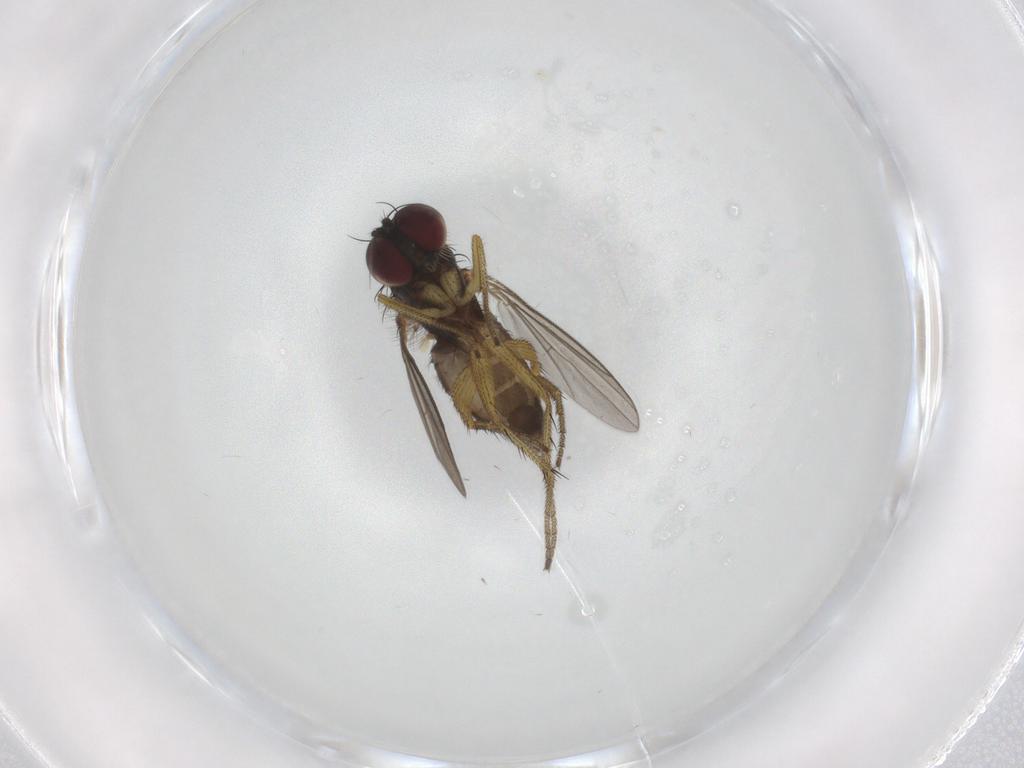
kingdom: Animalia
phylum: Arthropoda
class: Insecta
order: Diptera
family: Chironomidae
